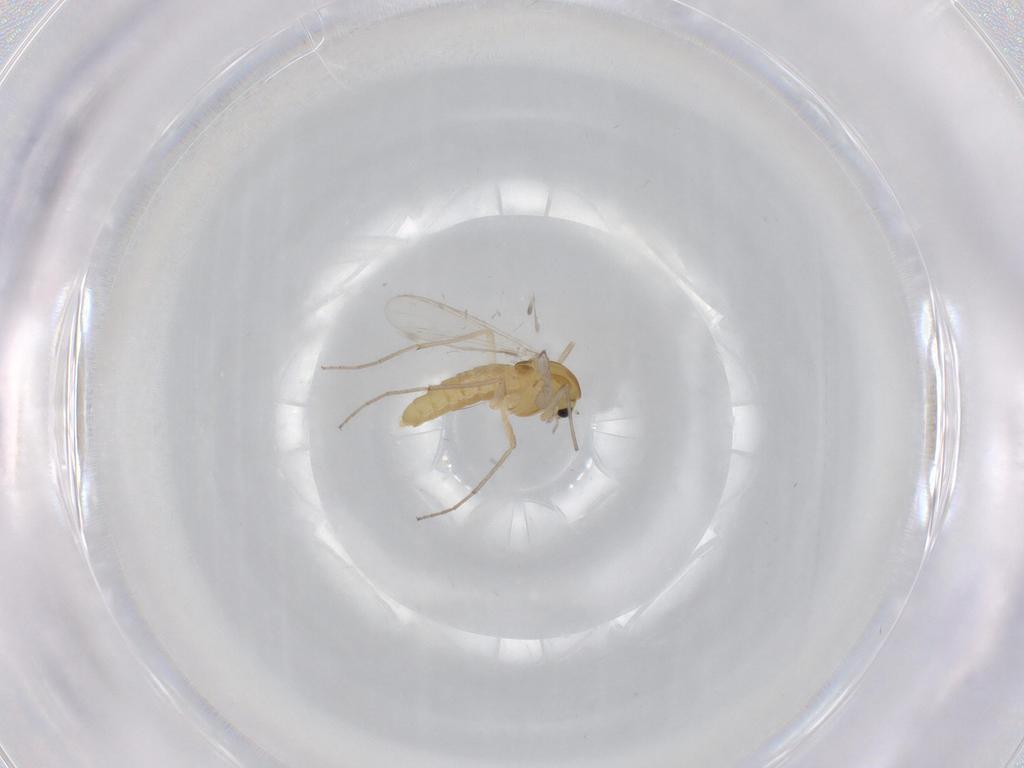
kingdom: Animalia
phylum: Arthropoda
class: Insecta
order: Diptera
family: Chironomidae
